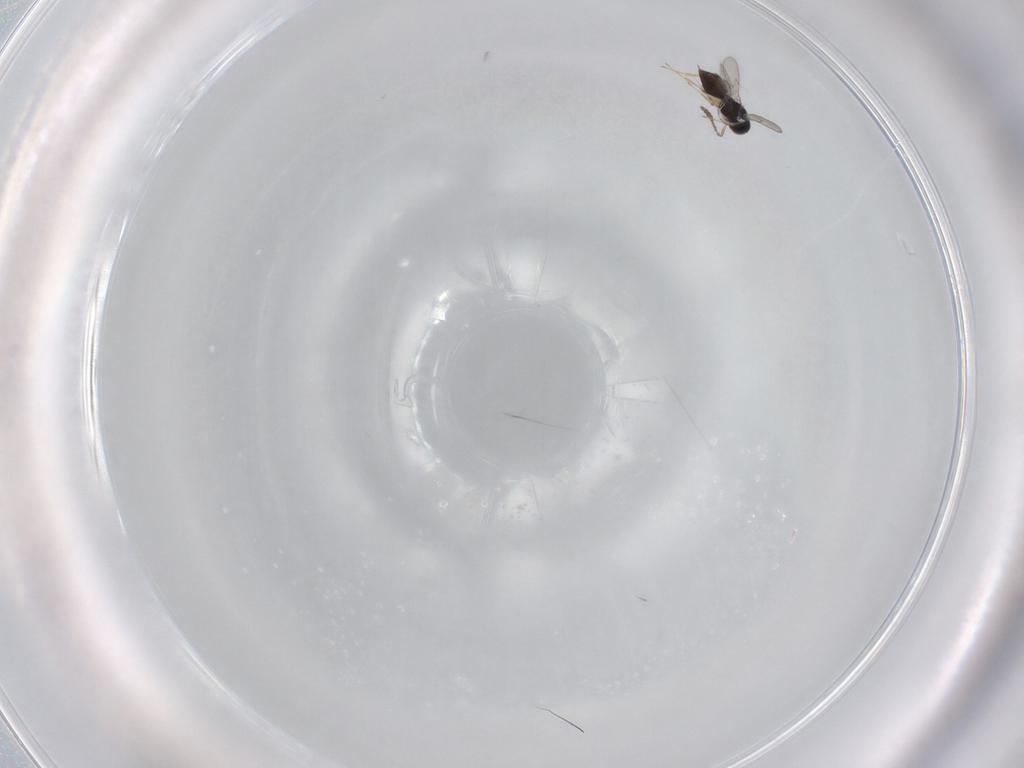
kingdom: Animalia
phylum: Arthropoda
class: Insecta
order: Hymenoptera
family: Scelionidae
